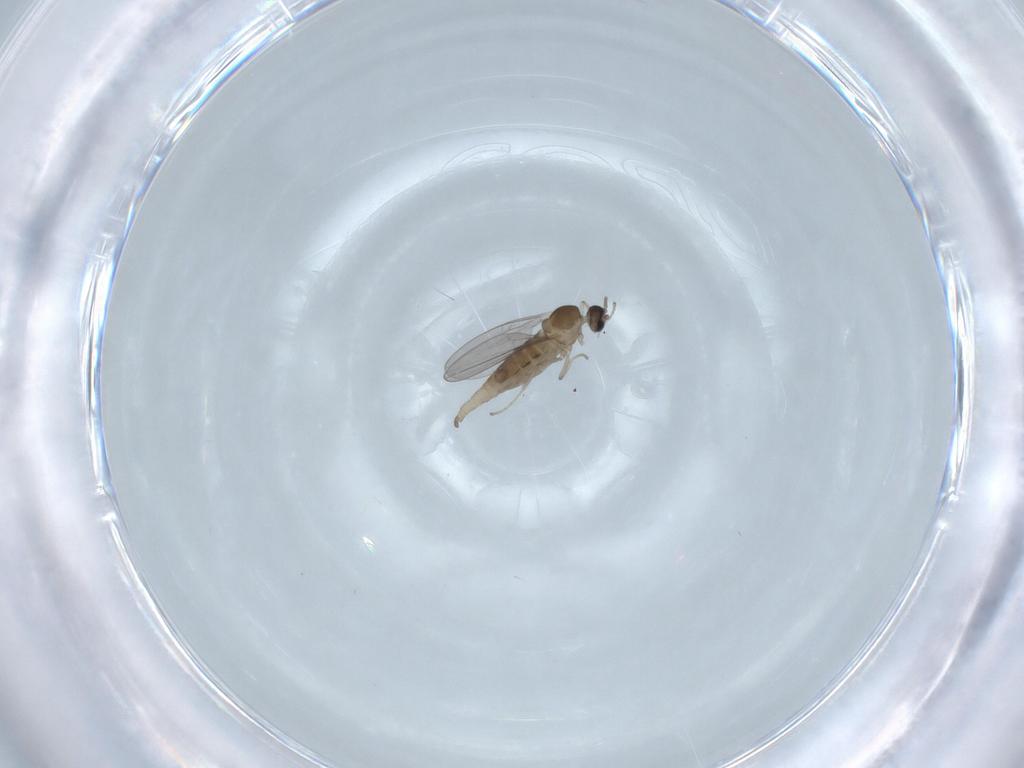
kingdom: Animalia
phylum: Arthropoda
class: Insecta
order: Diptera
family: Cecidomyiidae
